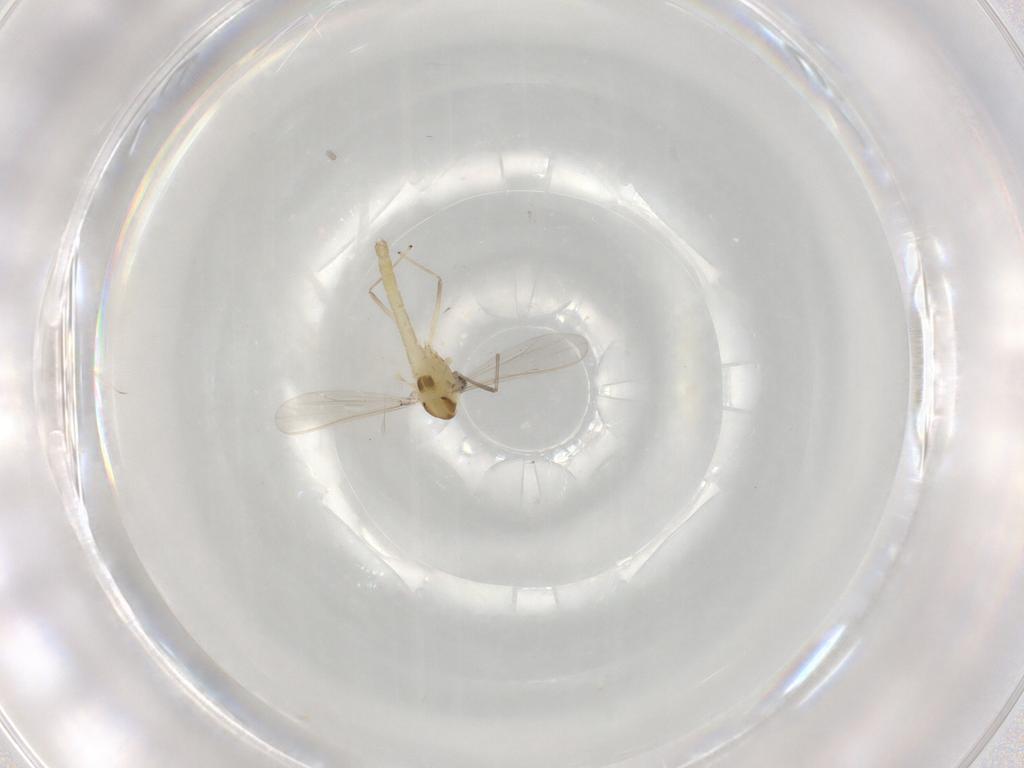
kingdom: Animalia
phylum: Arthropoda
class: Insecta
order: Diptera
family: Chironomidae
